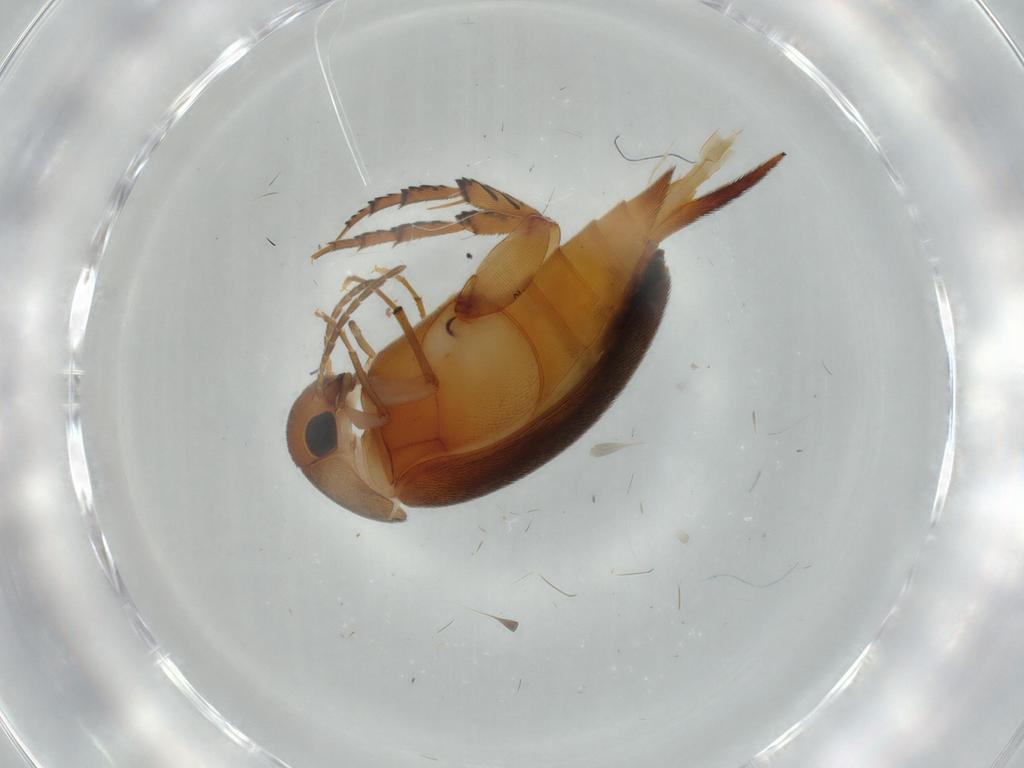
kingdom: Animalia
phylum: Arthropoda
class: Insecta
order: Coleoptera
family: Mordellidae
